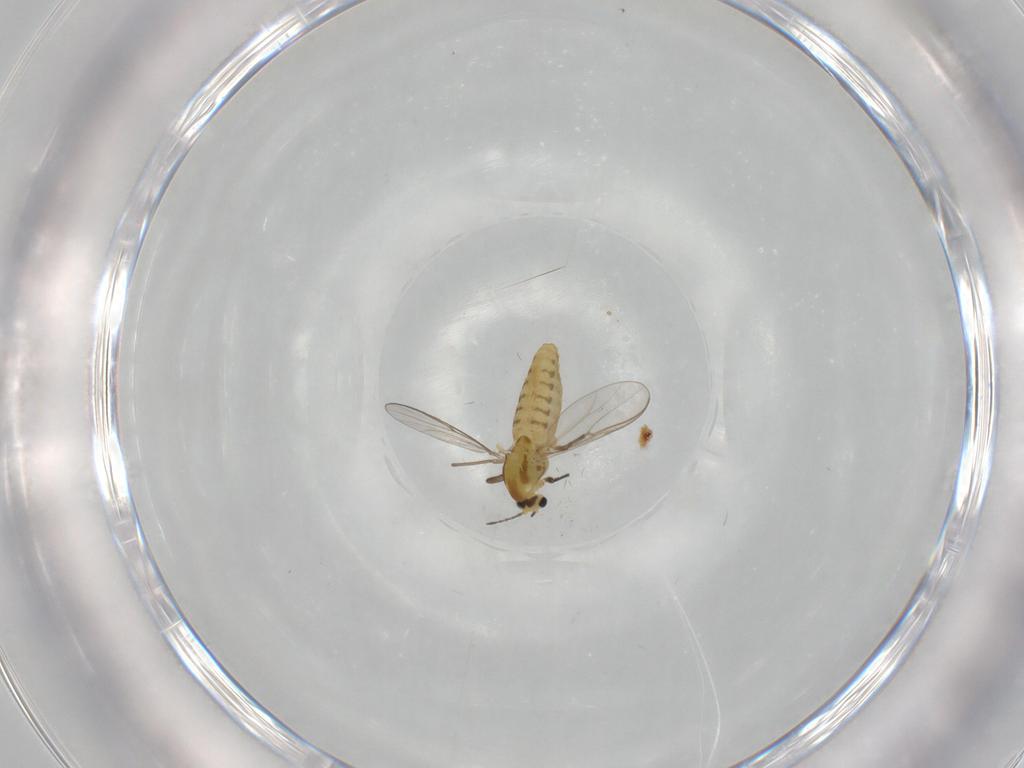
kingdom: Animalia
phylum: Arthropoda
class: Insecta
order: Diptera
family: Chironomidae
